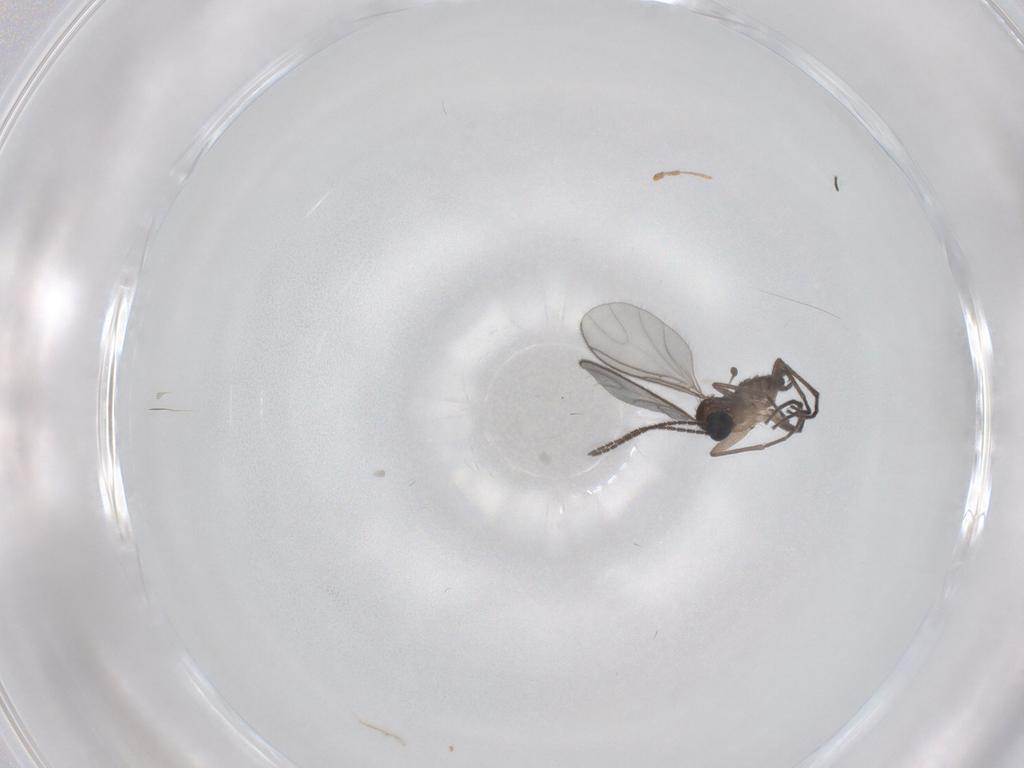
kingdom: Animalia
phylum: Arthropoda
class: Insecta
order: Diptera
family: Sciaridae
